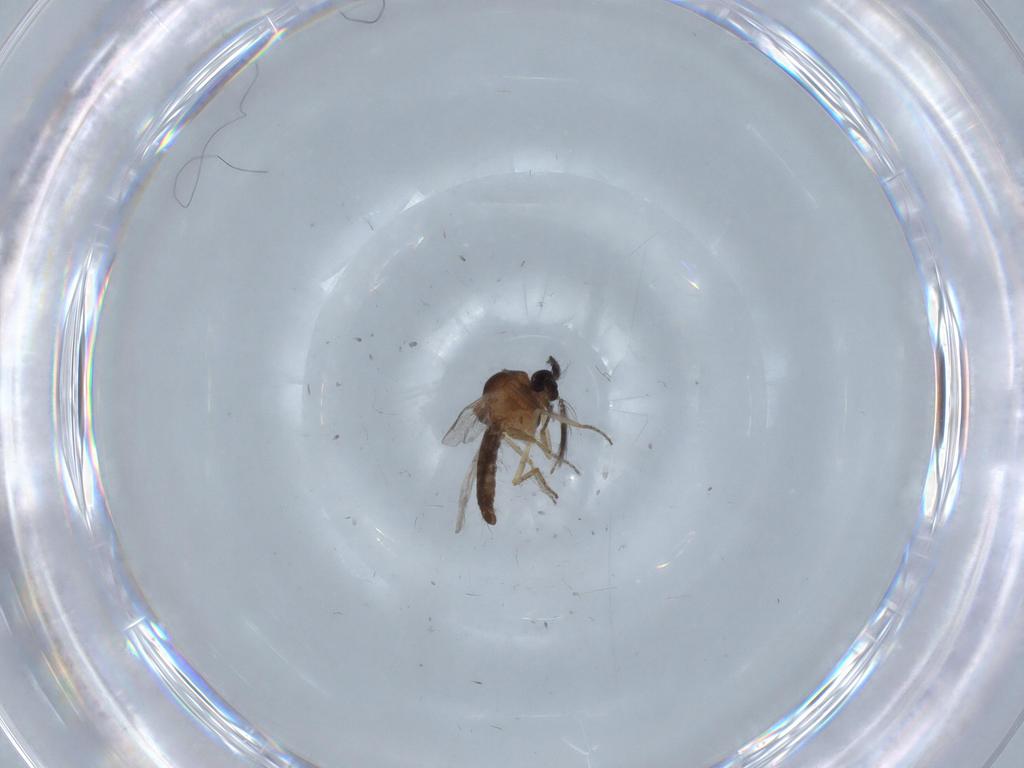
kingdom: Animalia
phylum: Arthropoda
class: Insecta
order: Diptera
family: Ceratopogonidae
